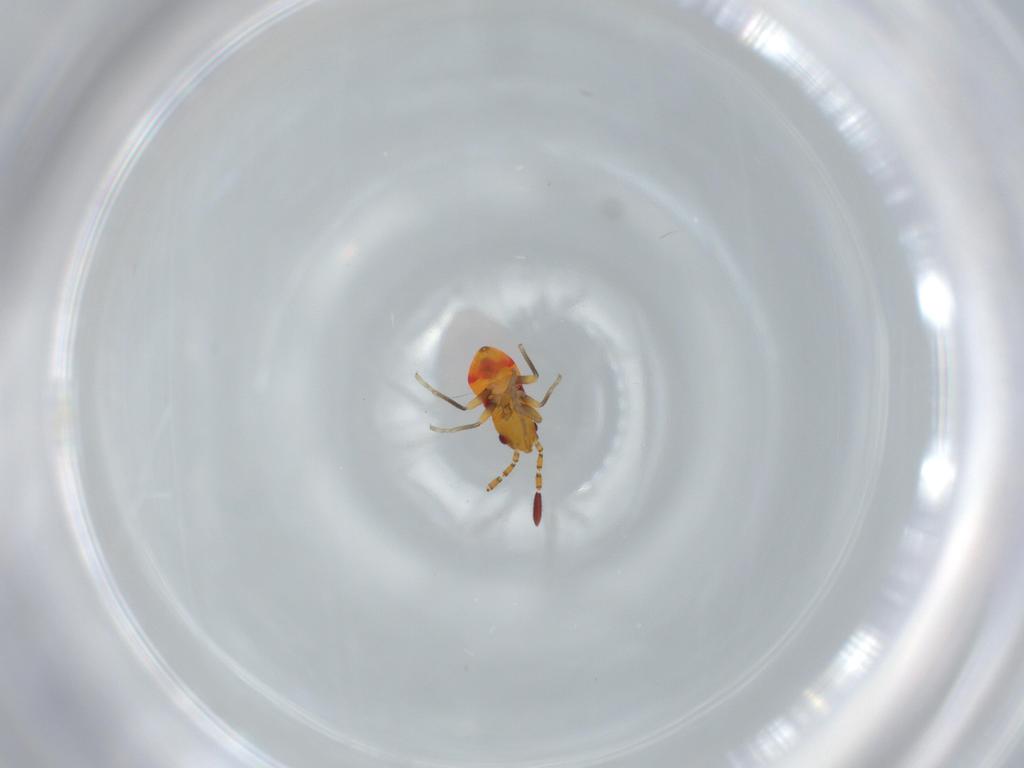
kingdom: Animalia
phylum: Arthropoda
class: Insecta
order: Hemiptera
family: Rhyparochromidae
